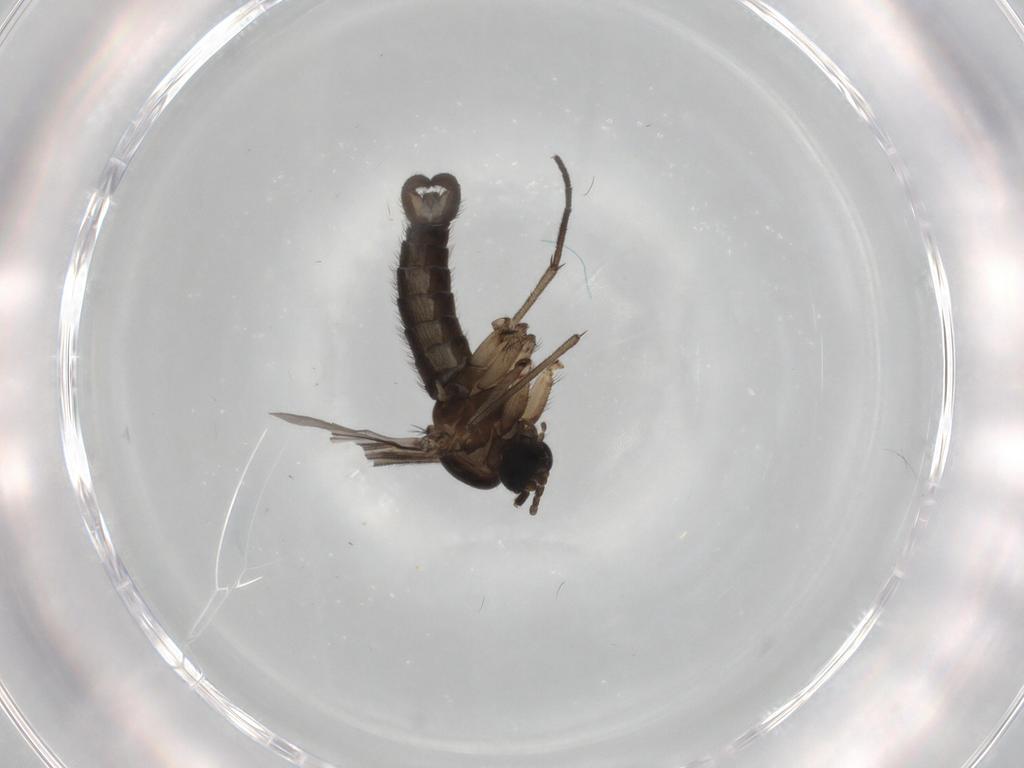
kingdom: Animalia
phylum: Arthropoda
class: Insecta
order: Diptera
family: Sciaridae
